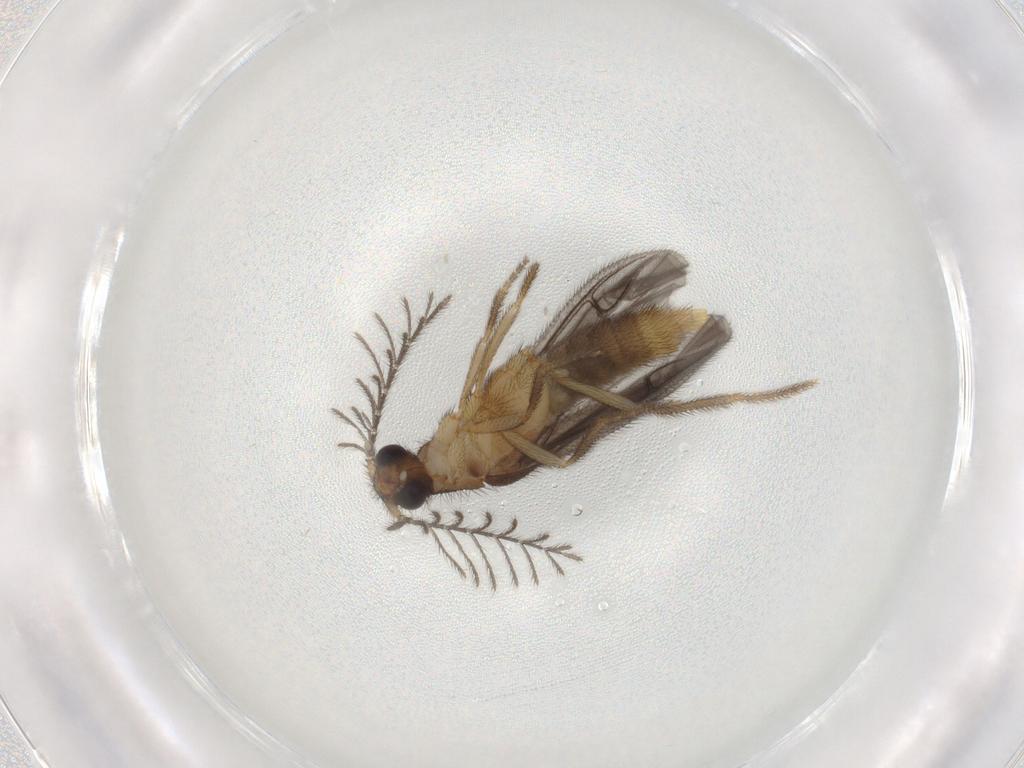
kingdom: Animalia
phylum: Arthropoda
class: Insecta
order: Coleoptera
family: Phengodidae
